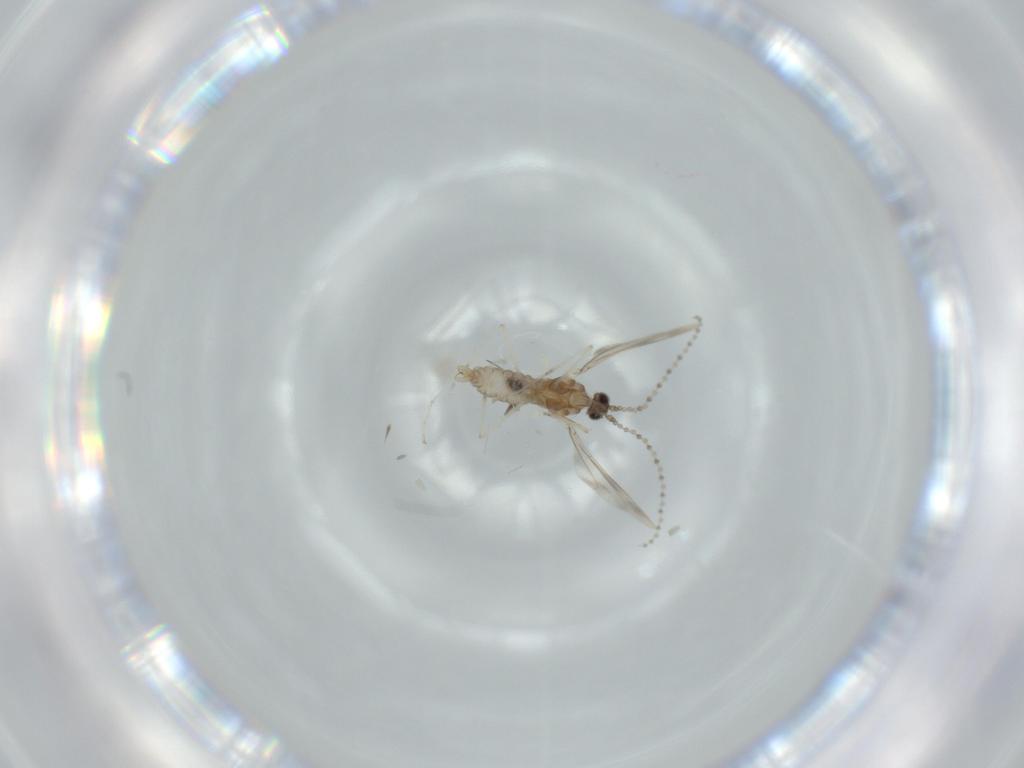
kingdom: Animalia
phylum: Arthropoda
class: Insecta
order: Diptera
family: Cecidomyiidae
